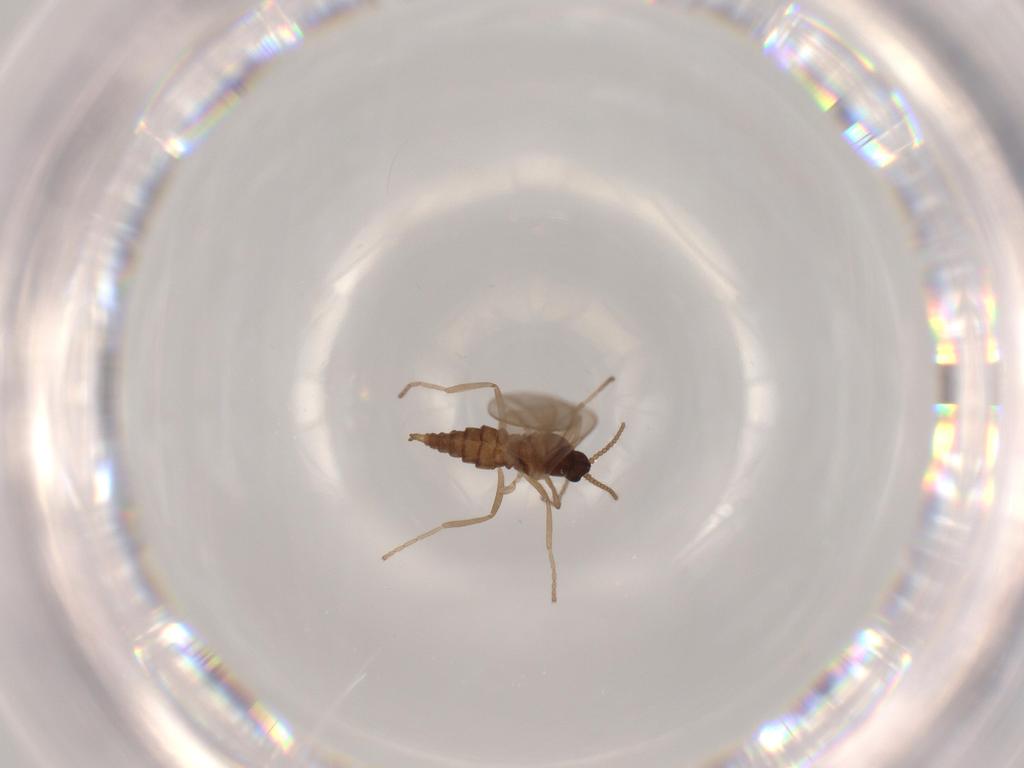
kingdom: Animalia
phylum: Arthropoda
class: Insecta
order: Diptera
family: Cecidomyiidae
